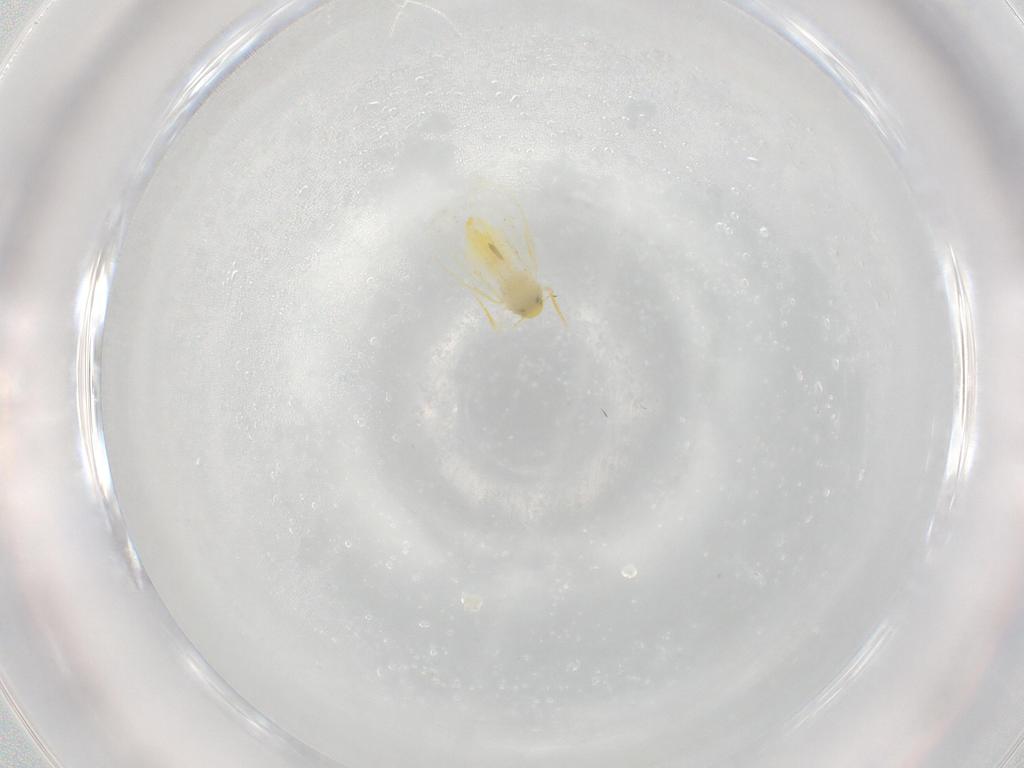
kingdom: Animalia
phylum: Arthropoda
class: Insecta
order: Hemiptera
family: Aleyrodidae
